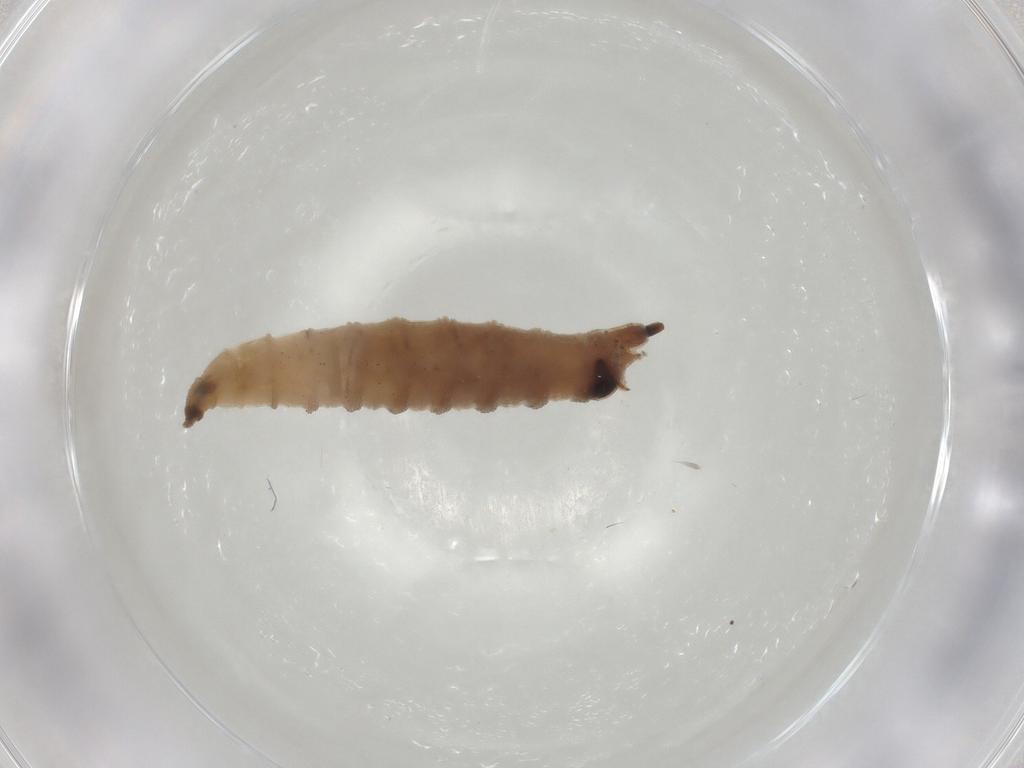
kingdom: Animalia
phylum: Arthropoda
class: Insecta
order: Diptera
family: Drosophilidae
